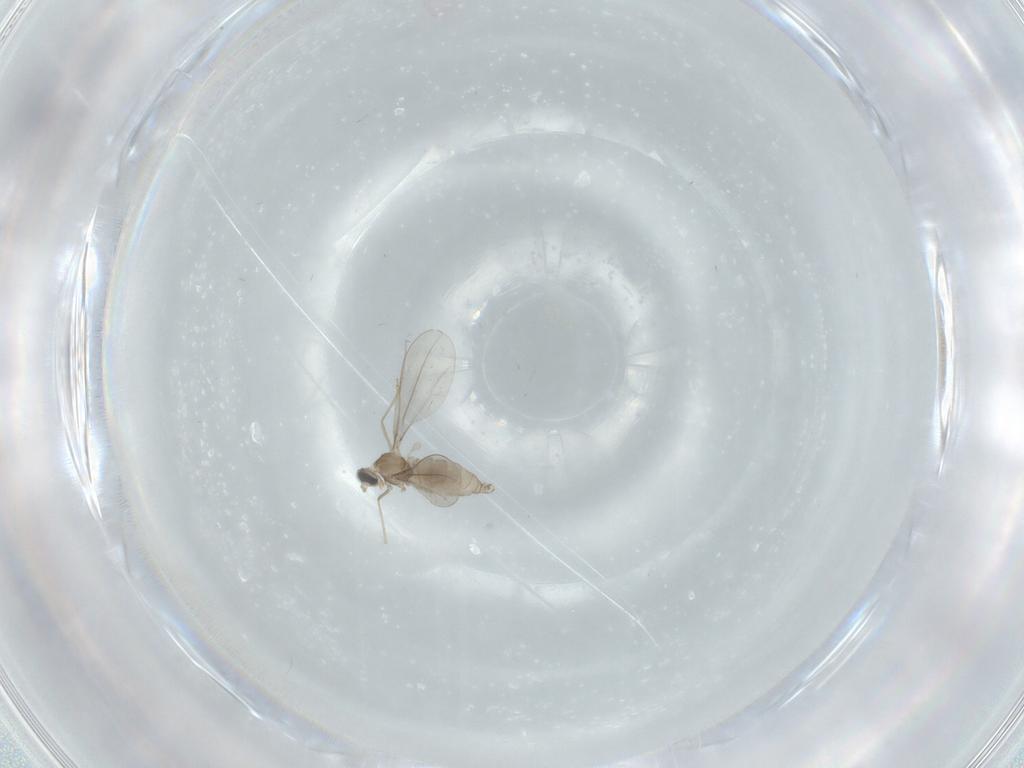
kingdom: Animalia
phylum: Arthropoda
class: Insecta
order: Diptera
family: Cecidomyiidae
